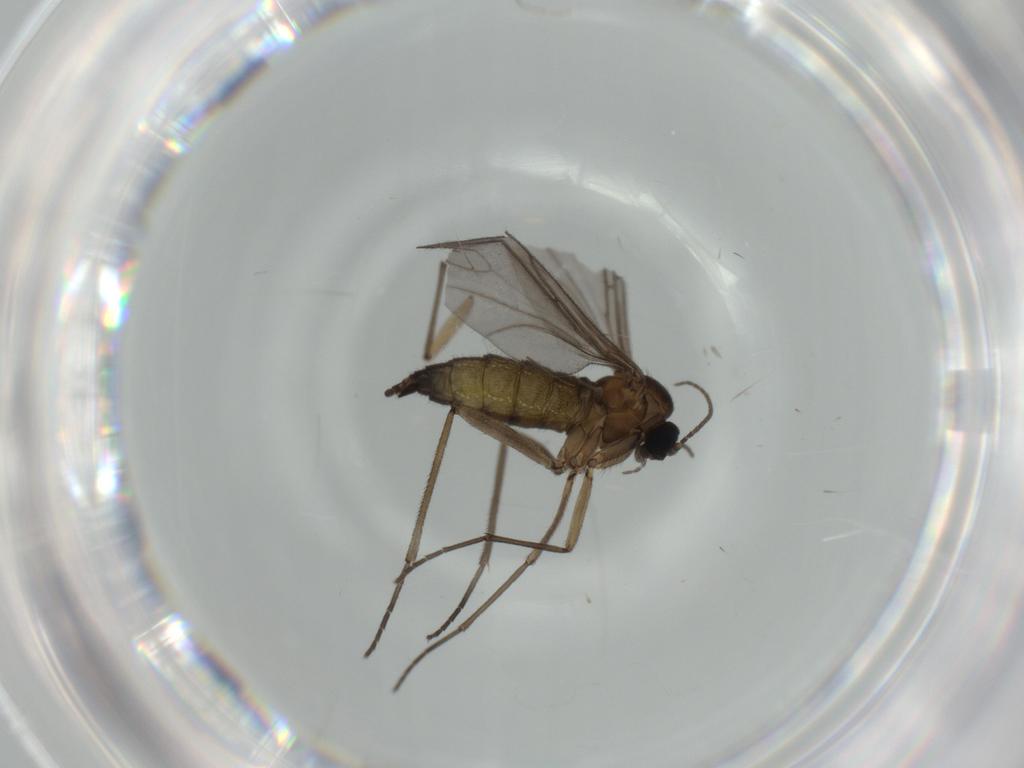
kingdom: Animalia
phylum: Arthropoda
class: Insecta
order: Diptera
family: Sciaridae
